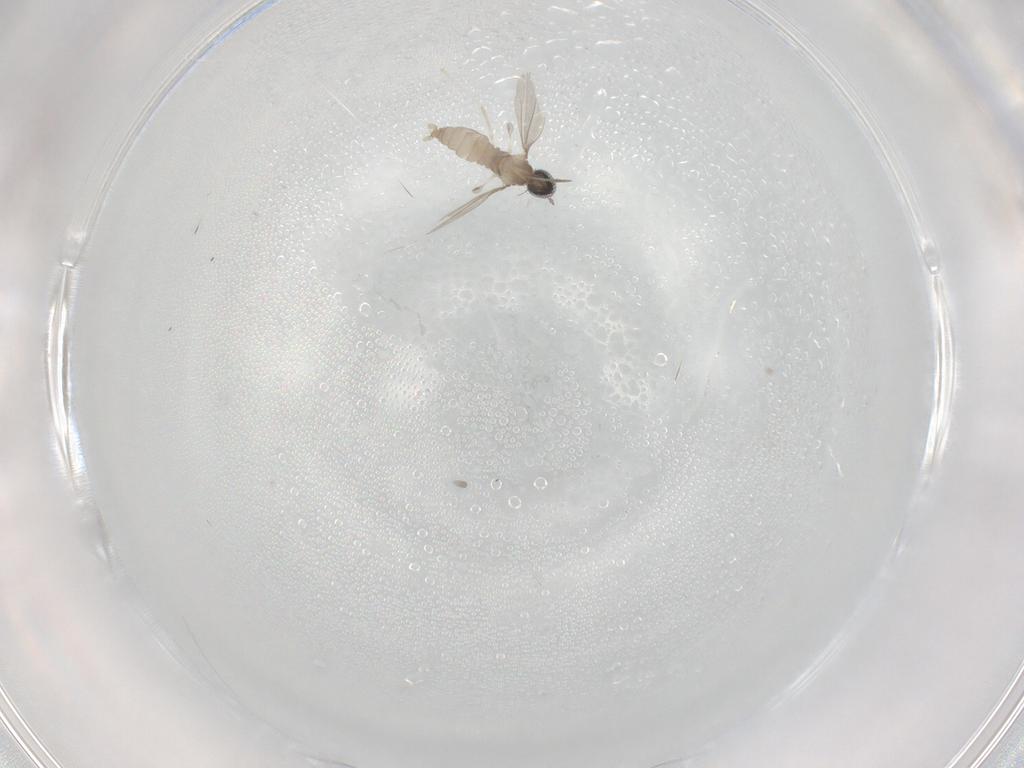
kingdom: Animalia
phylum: Arthropoda
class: Insecta
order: Diptera
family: Cecidomyiidae
